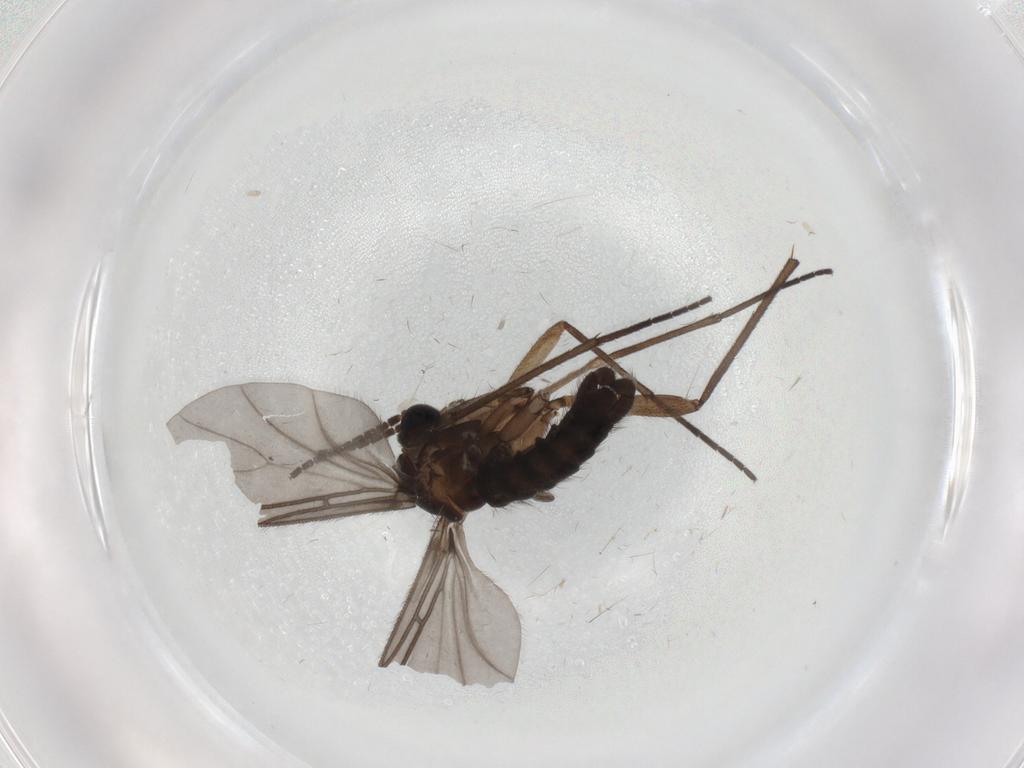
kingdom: Animalia
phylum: Arthropoda
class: Insecta
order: Diptera
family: Sciaridae
